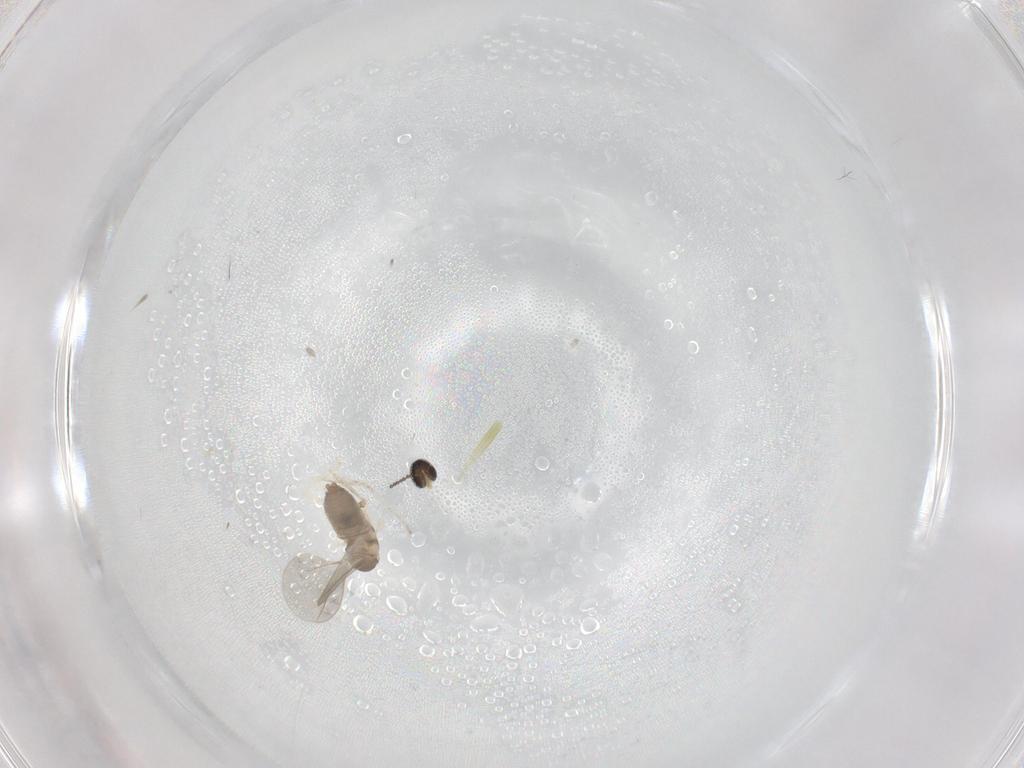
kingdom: Animalia
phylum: Arthropoda
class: Insecta
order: Diptera
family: Cecidomyiidae
